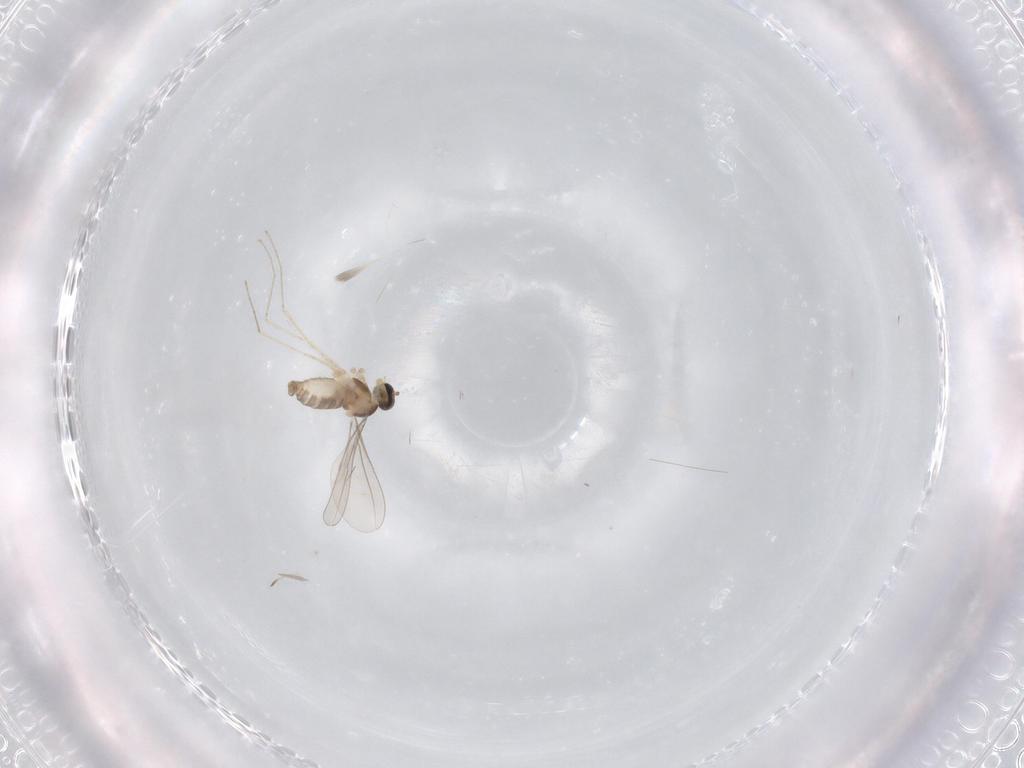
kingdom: Animalia
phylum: Arthropoda
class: Insecta
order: Diptera
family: Cecidomyiidae
